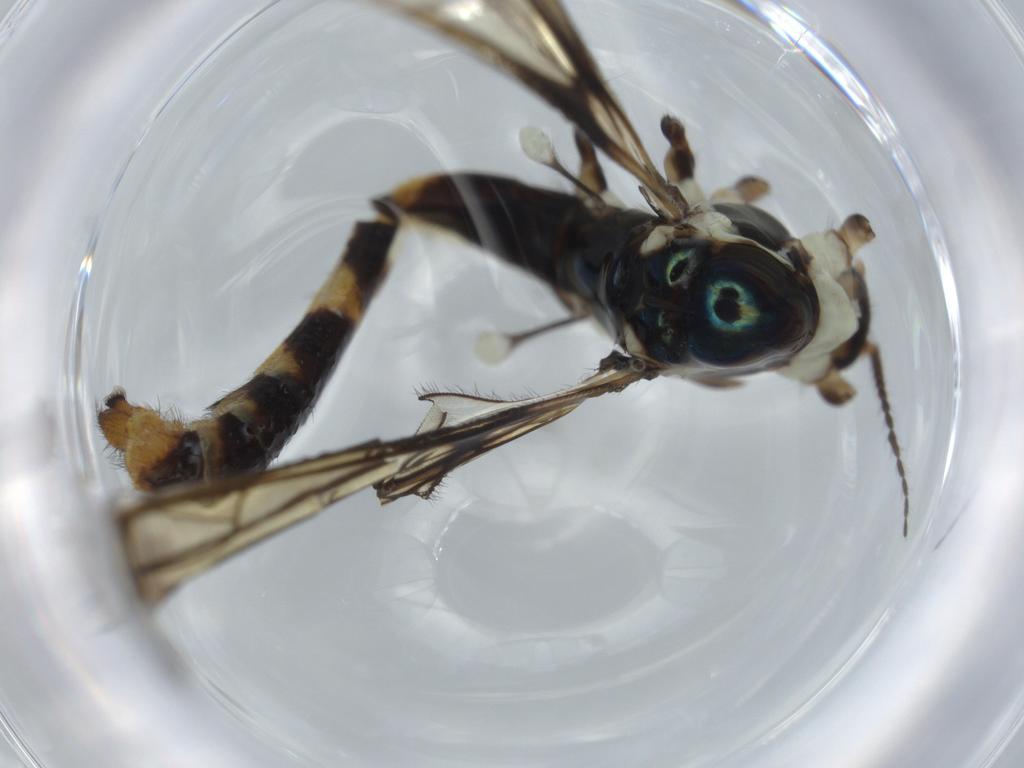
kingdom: Animalia
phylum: Arthropoda
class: Insecta
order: Diptera
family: Limoniidae
